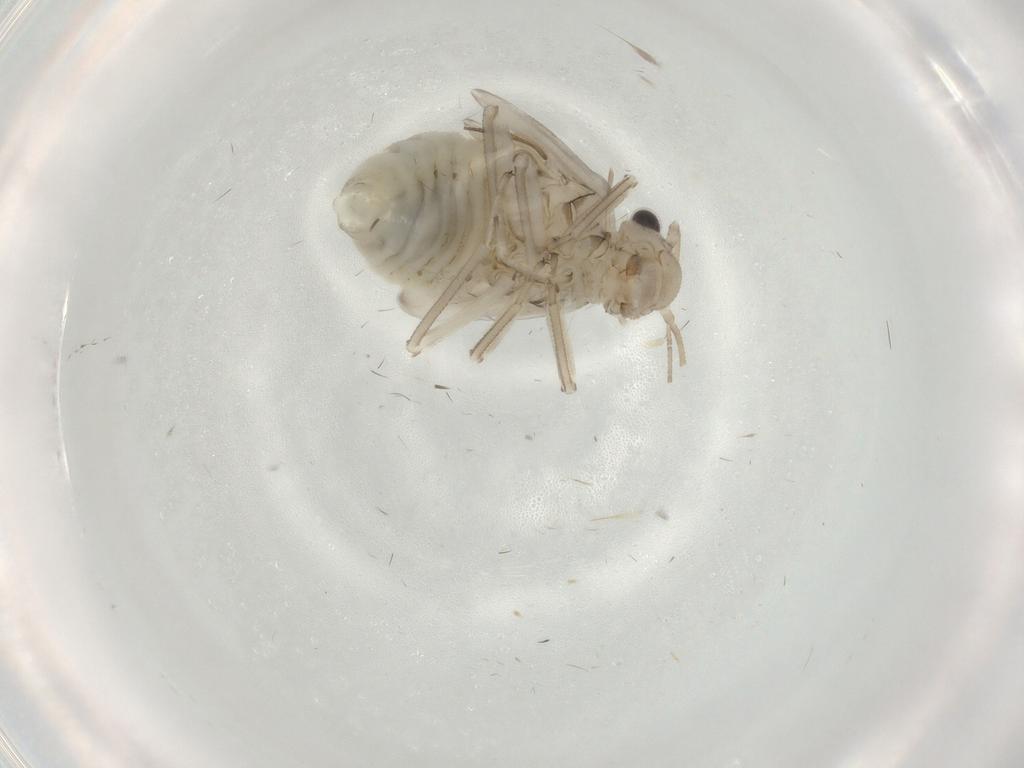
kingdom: Animalia
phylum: Arthropoda
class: Insecta
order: Psocodea
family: Amphipsocidae
